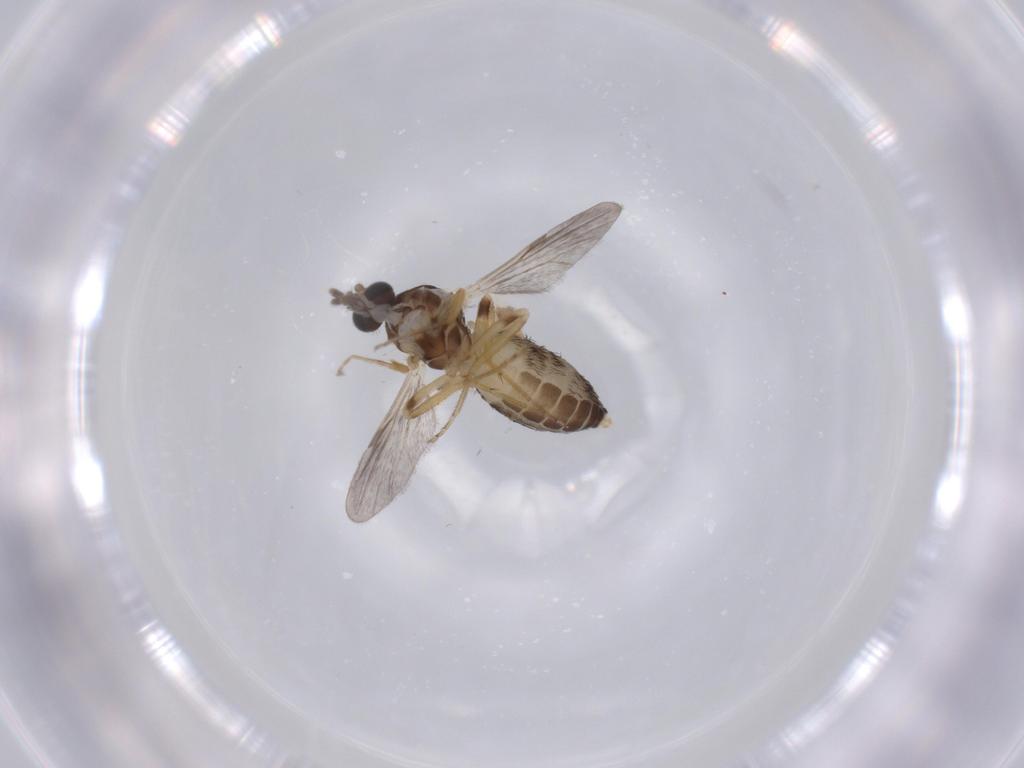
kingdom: Animalia
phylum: Arthropoda
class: Insecta
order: Diptera
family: Ceratopogonidae
